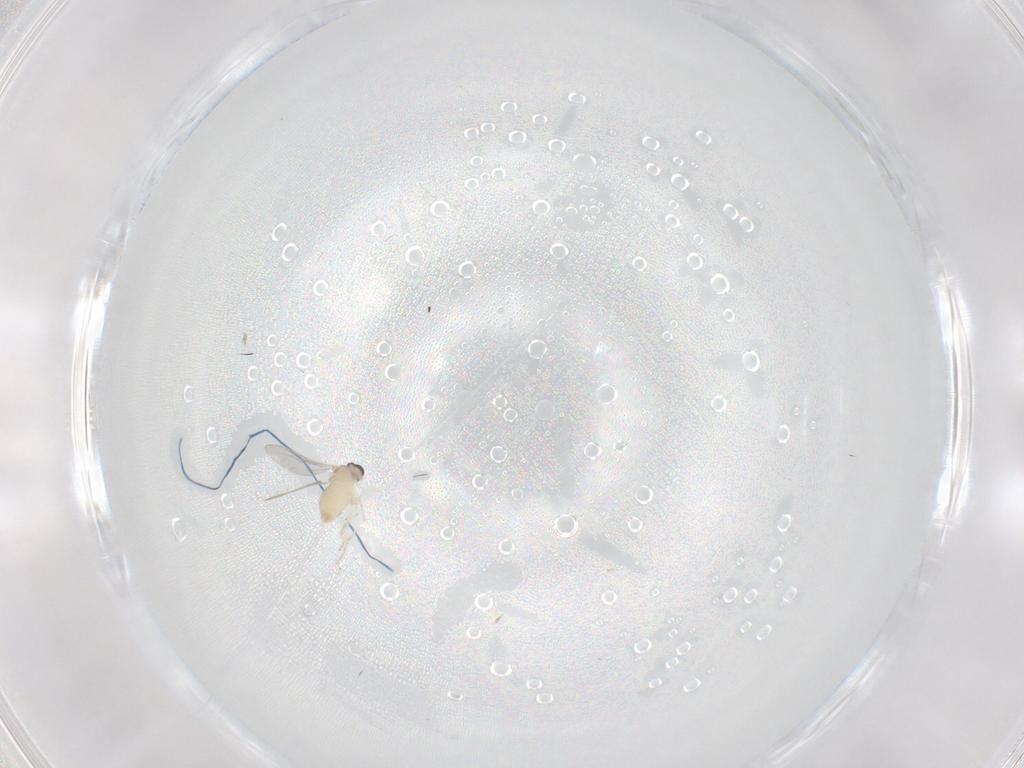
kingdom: Animalia
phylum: Arthropoda
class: Insecta
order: Diptera
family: Cecidomyiidae
